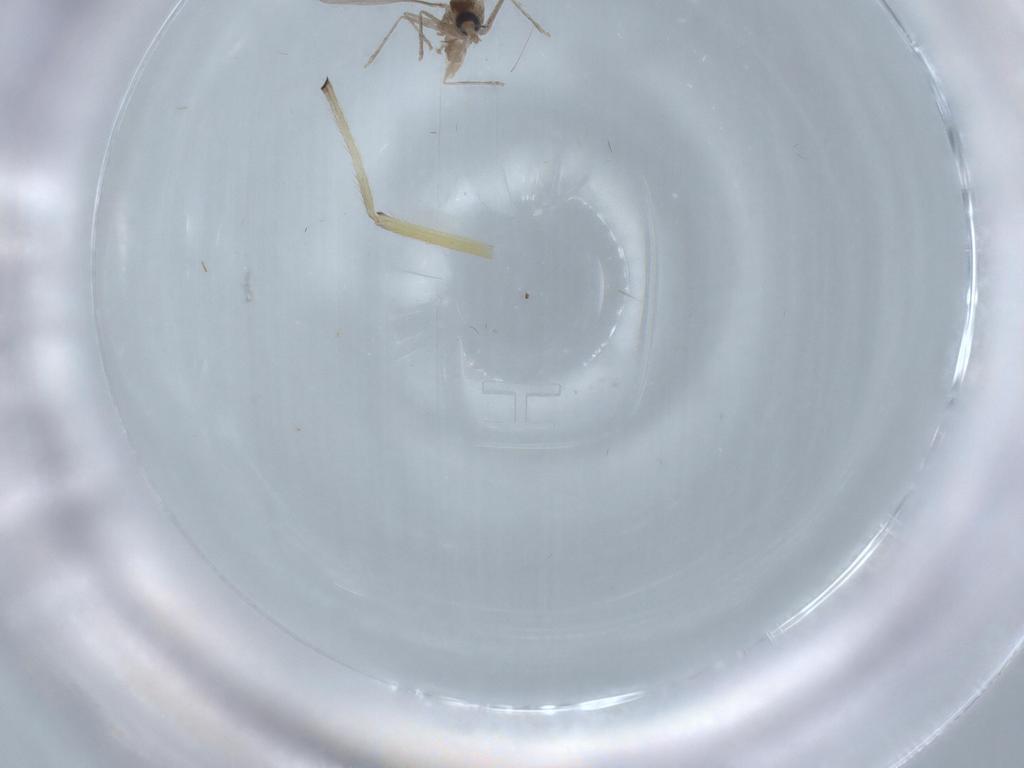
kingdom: Animalia
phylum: Arthropoda
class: Insecta
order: Diptera
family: Chironomidae
